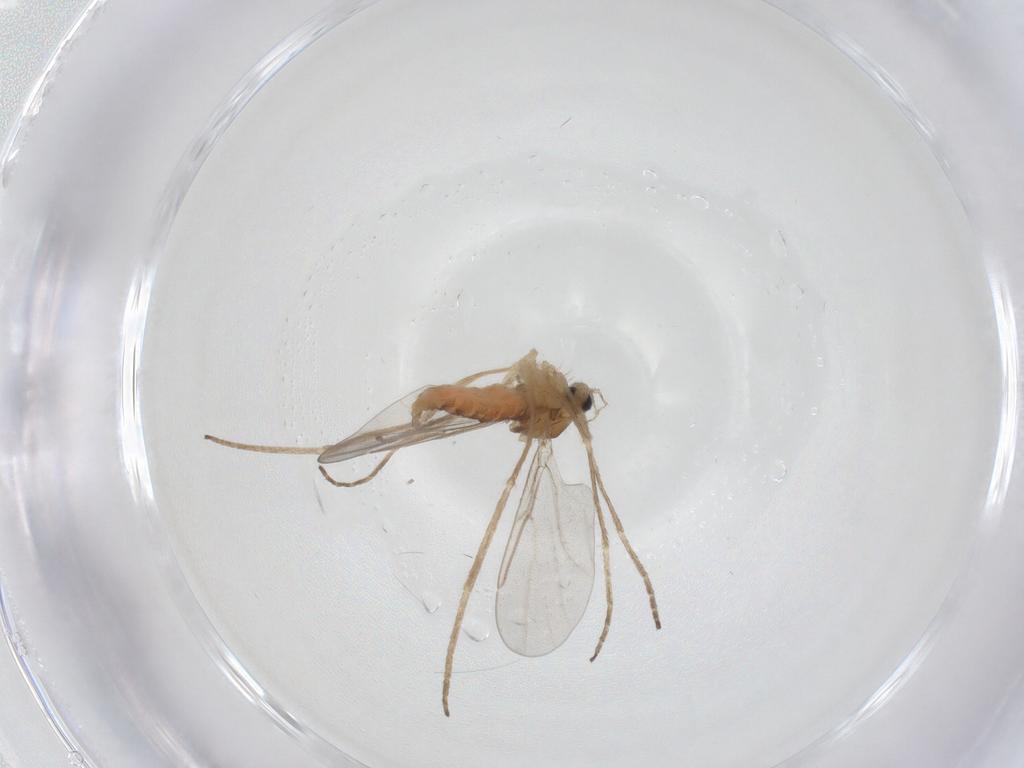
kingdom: Animalia
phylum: Arthropoda
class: Insecta
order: Diptera
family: Cecidomyiidae
